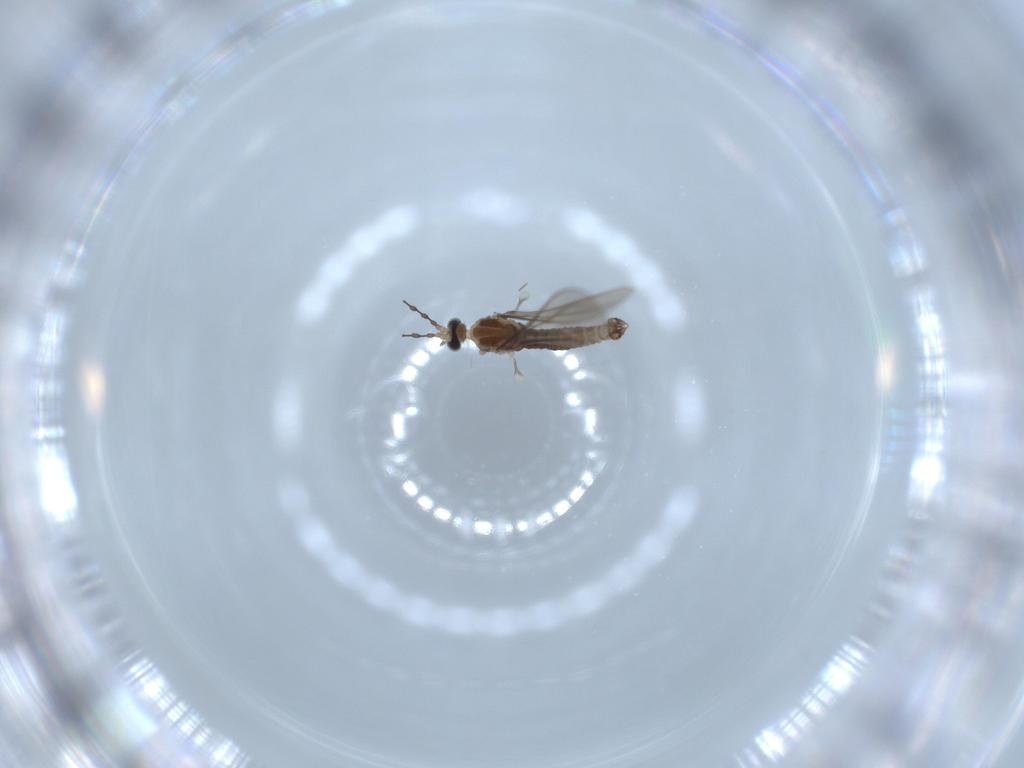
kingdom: Animalia
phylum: Arthropoda
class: Insecta
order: Diptera
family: Cecidomyiidae
